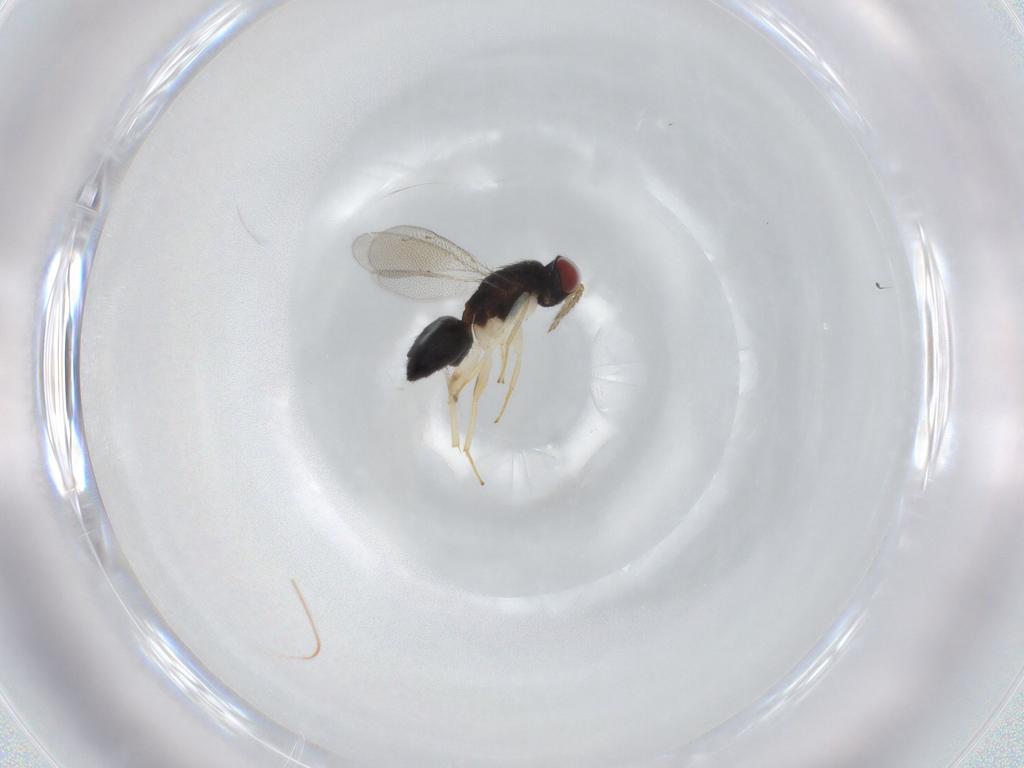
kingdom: Animalia
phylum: Arthropoda
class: Insecta
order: Hymenoptera
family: Eulophidae
